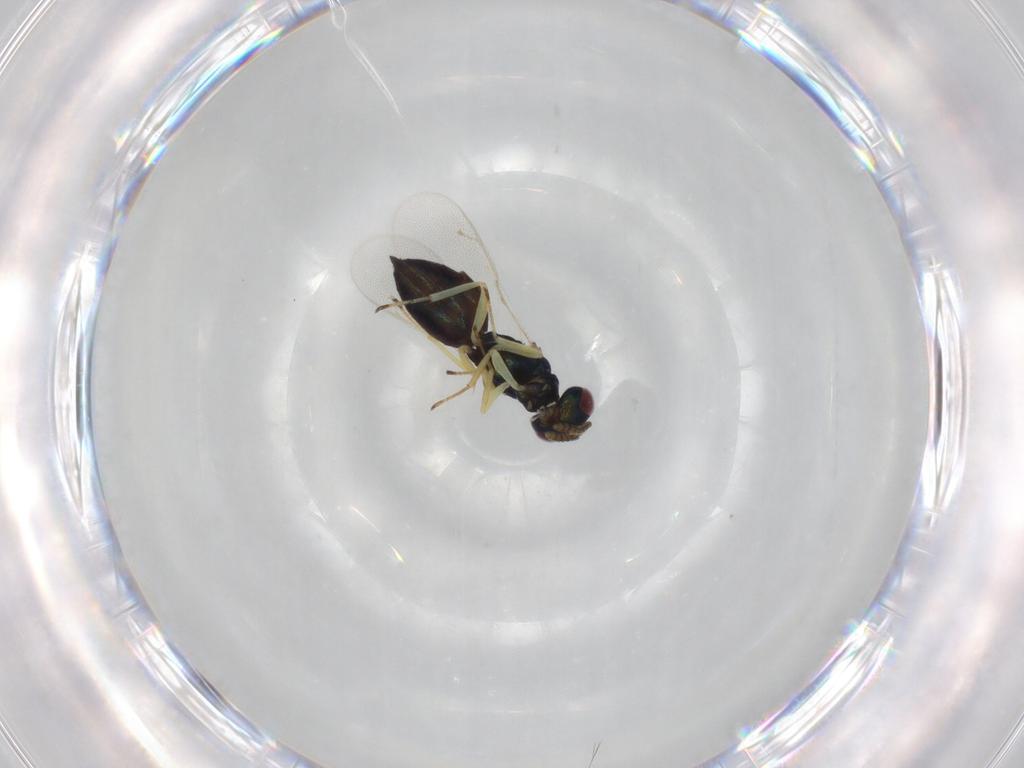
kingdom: Animalia
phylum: Arthropoda
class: Insecta
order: Hymenoptera
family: Pteromalidae
